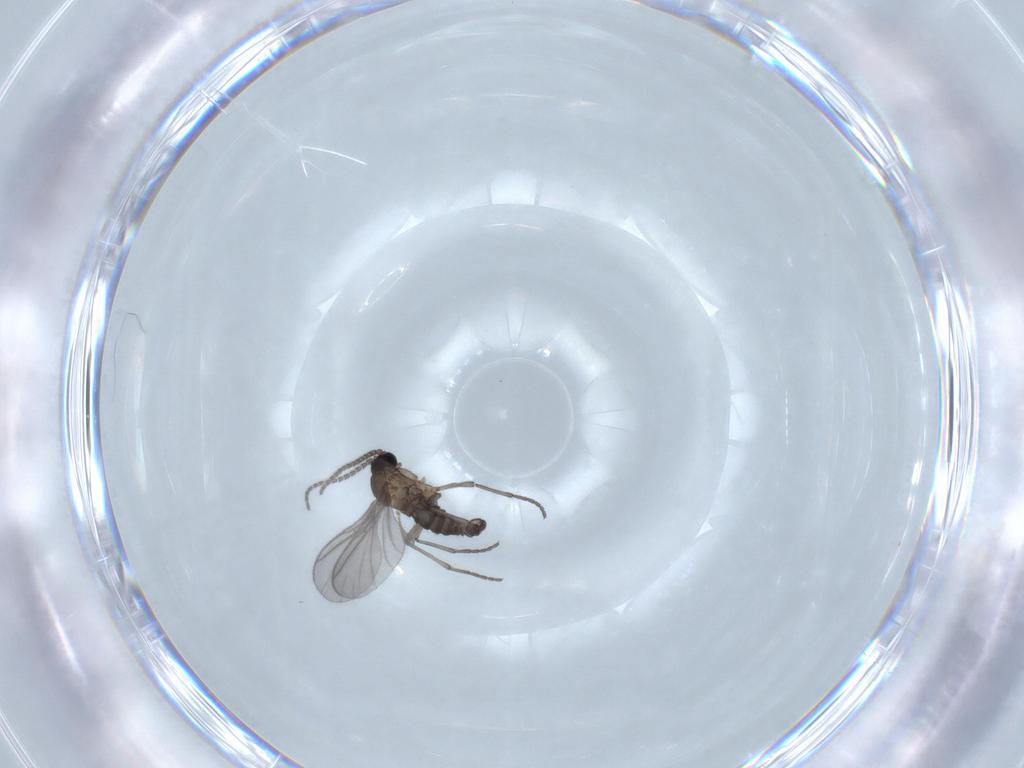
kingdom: Animalia
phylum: Arthropoda
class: Insecta
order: Diptera
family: Sciaridae
